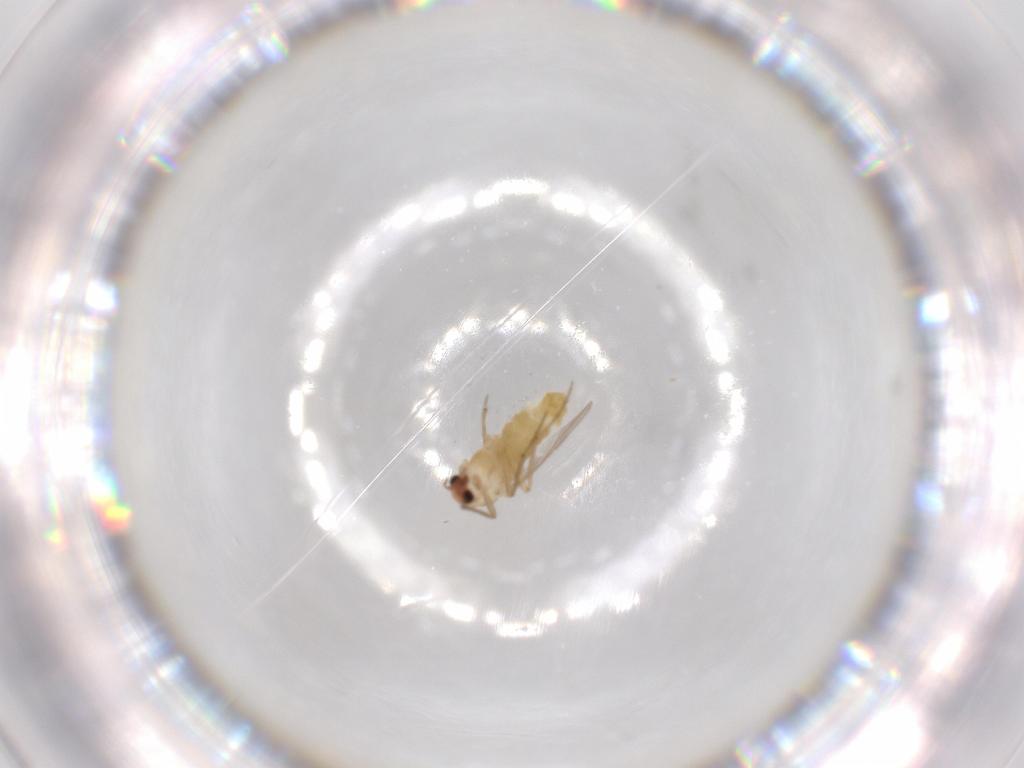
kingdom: Animalia
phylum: Arthropoda
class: Insecta
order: Diptera
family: Chironomidae
